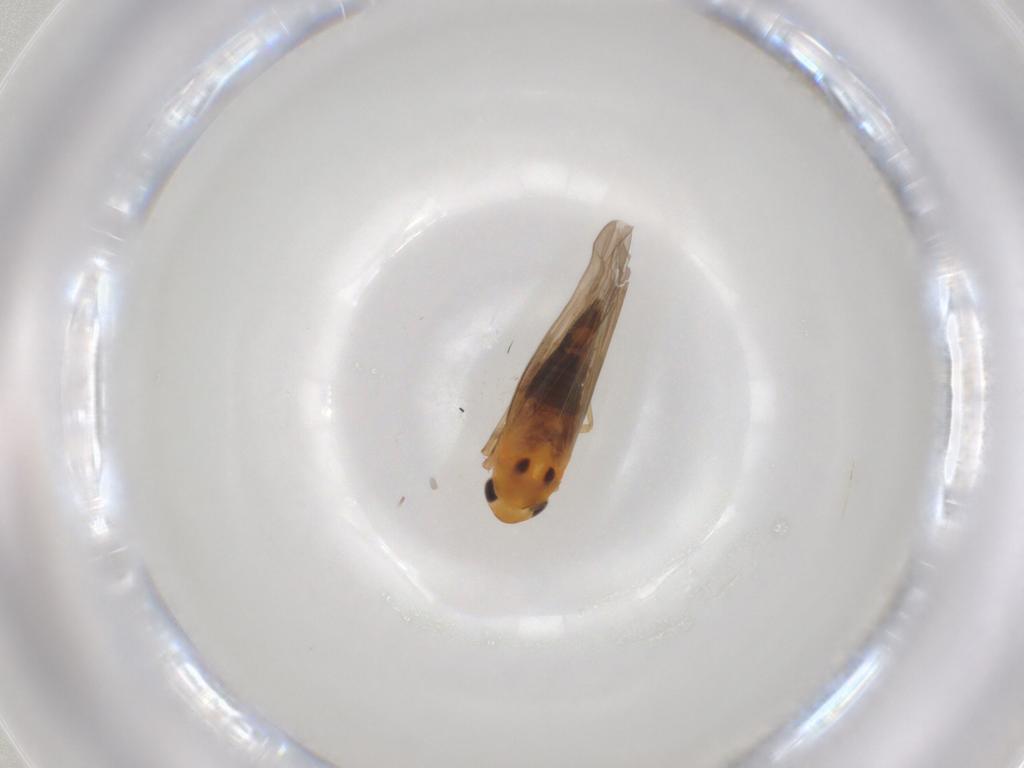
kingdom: Animalia
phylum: Arthropoda
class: Insecta
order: Hemiptera
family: Cicadellidae
